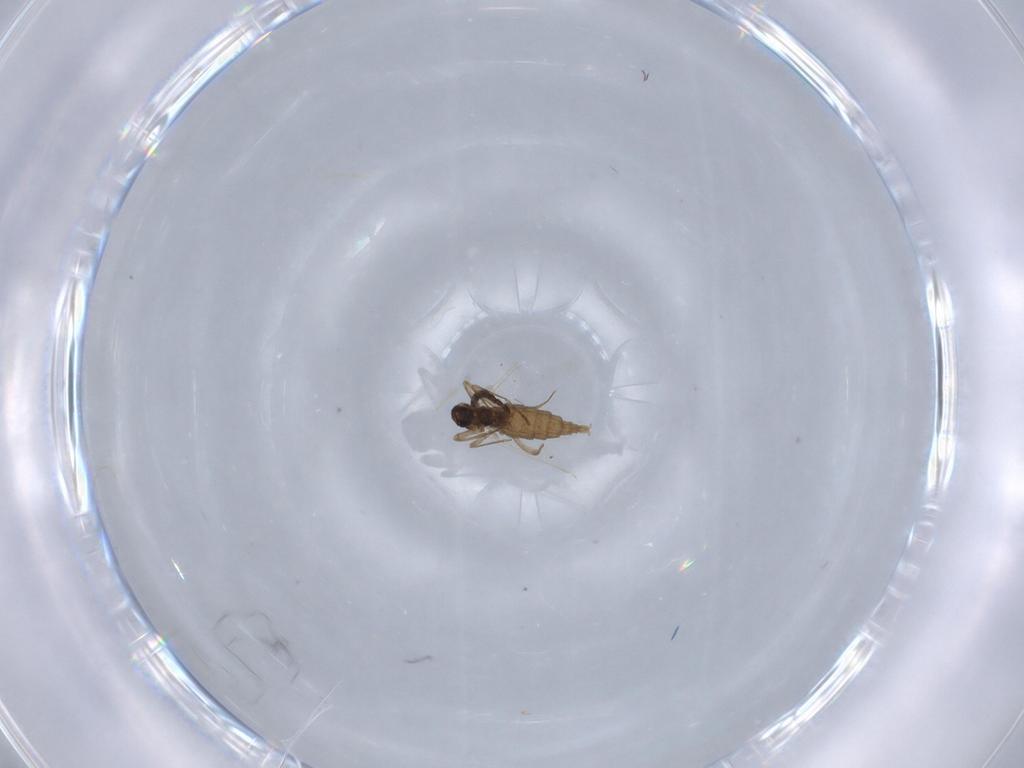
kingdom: Animalia
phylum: Arthropoda
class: Insecta
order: Diptera
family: Cecidomyiidae
